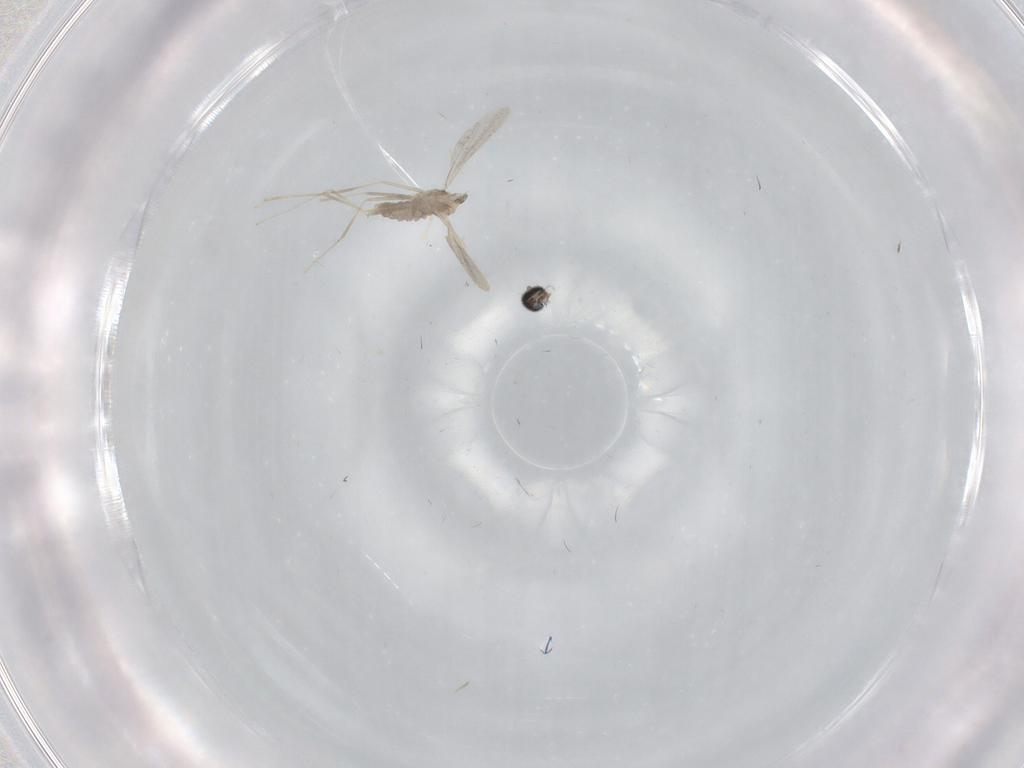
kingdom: Animalia
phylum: Arthropoda
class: Insecta
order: Diptera
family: Cecidomyiidae
